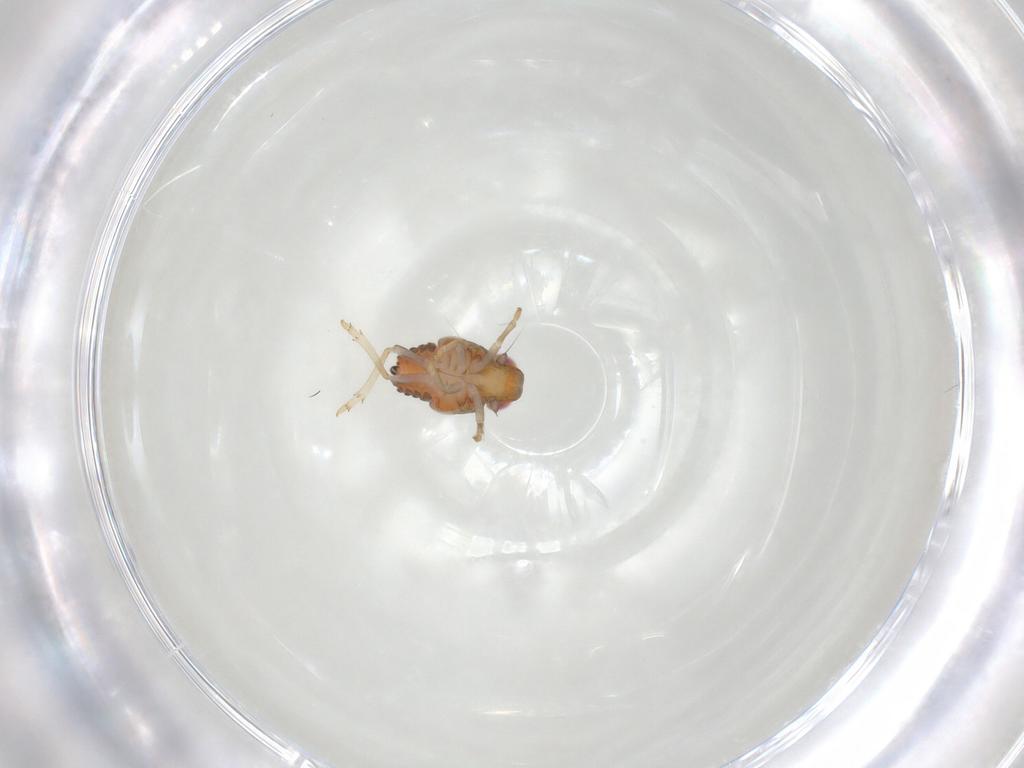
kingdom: Animalia
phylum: Arthropoda
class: Insecta
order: Hemiptera
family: Issidae
